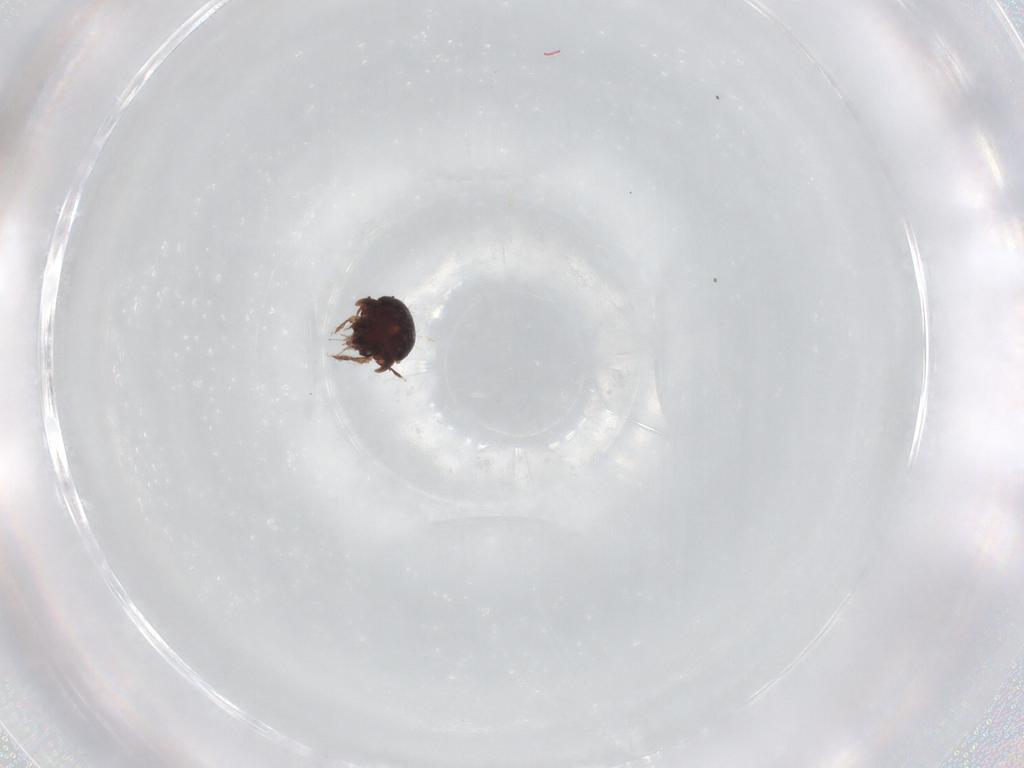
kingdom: Animalia
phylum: Arthropoda
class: Arachnida
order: Sarcoptiformes
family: Phenopelopidae
